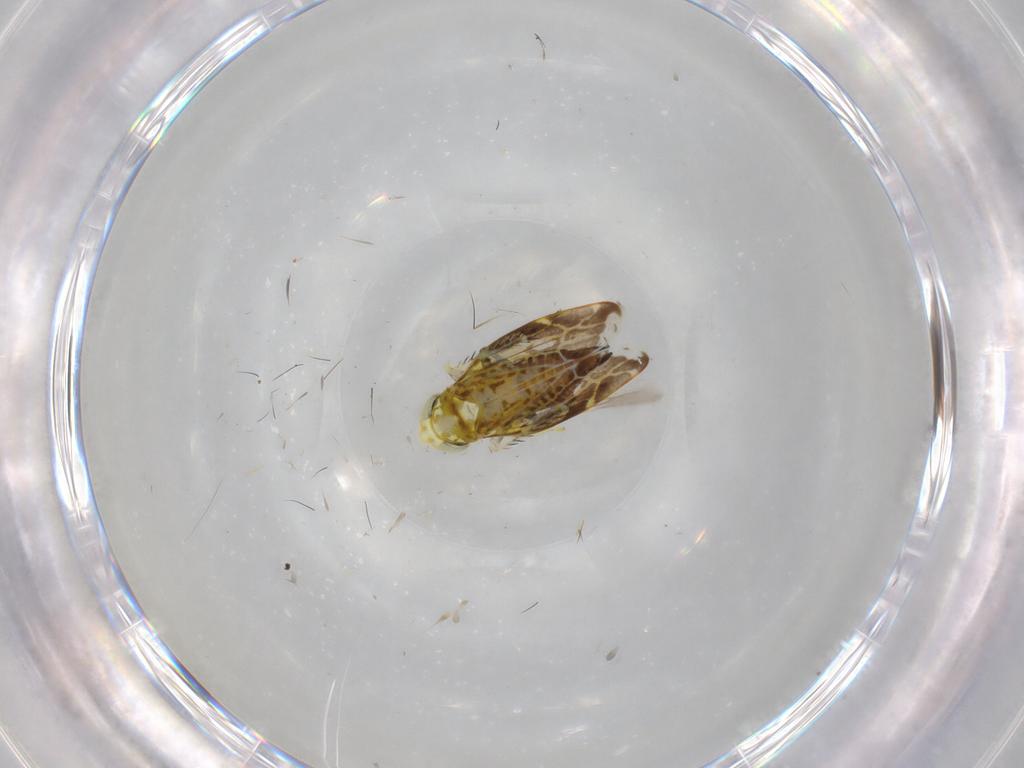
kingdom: Animalia
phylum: Arthropoda
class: Insecta
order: Hemiptera
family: Cicadellidae
